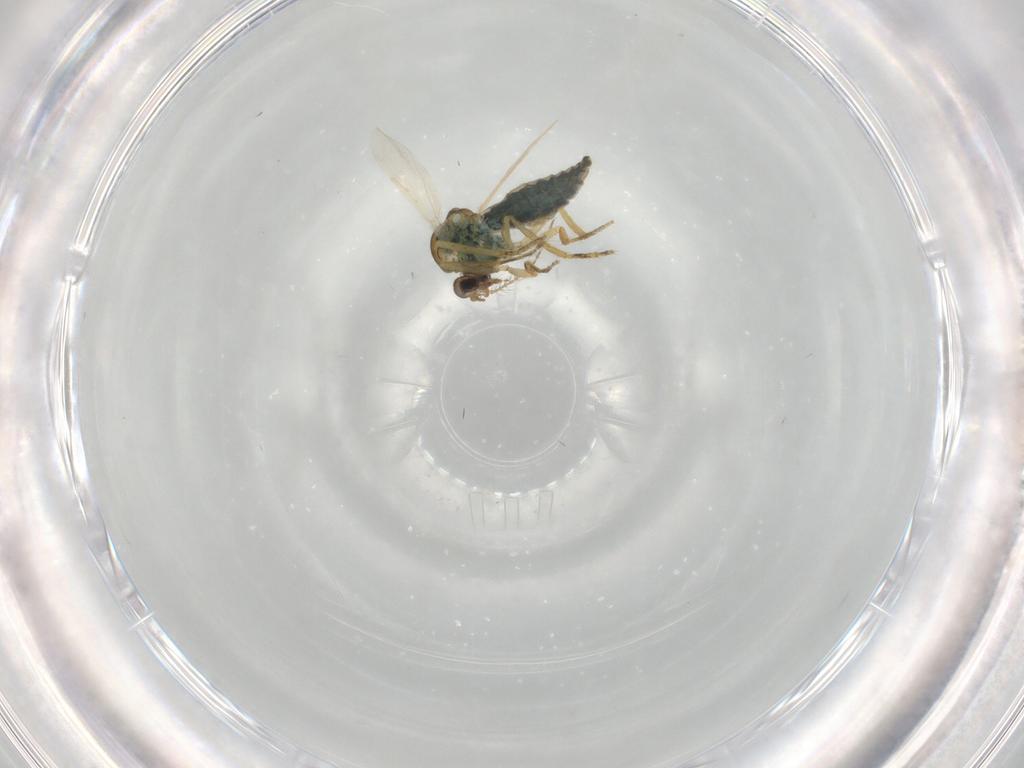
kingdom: Animalia
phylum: Arthropoda
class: Insecta
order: Diptera
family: Ceratopogonidae
